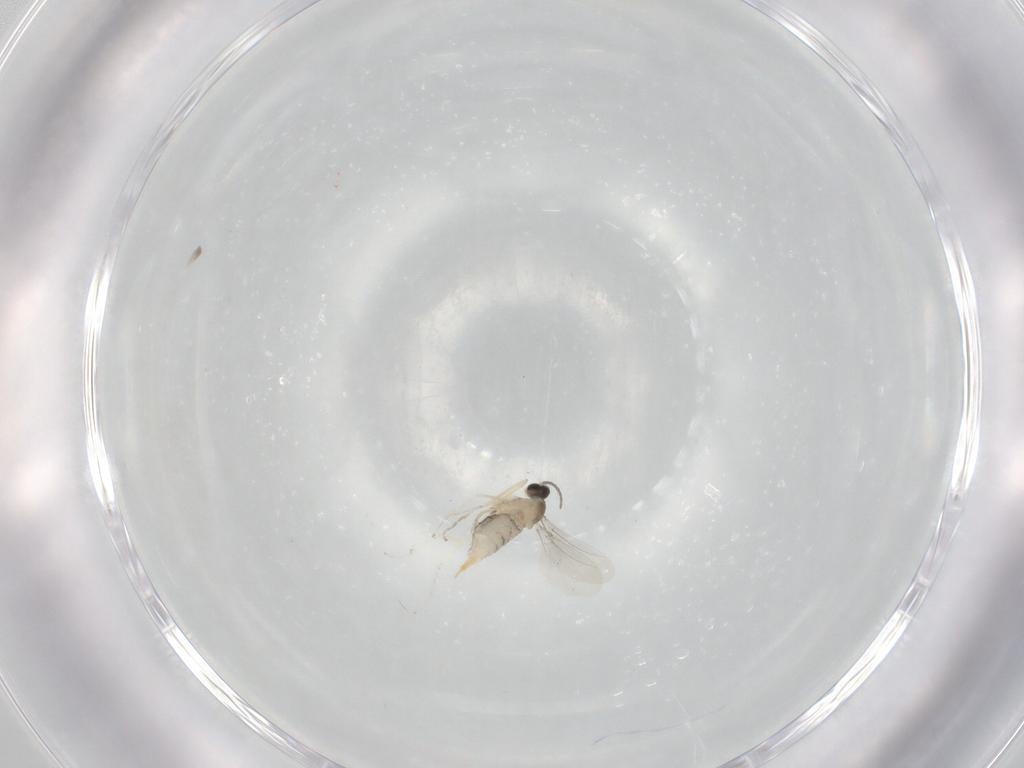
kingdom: Animalia
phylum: Arthropoda
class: Insecta
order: Diptera
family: Cecidomyiidae
